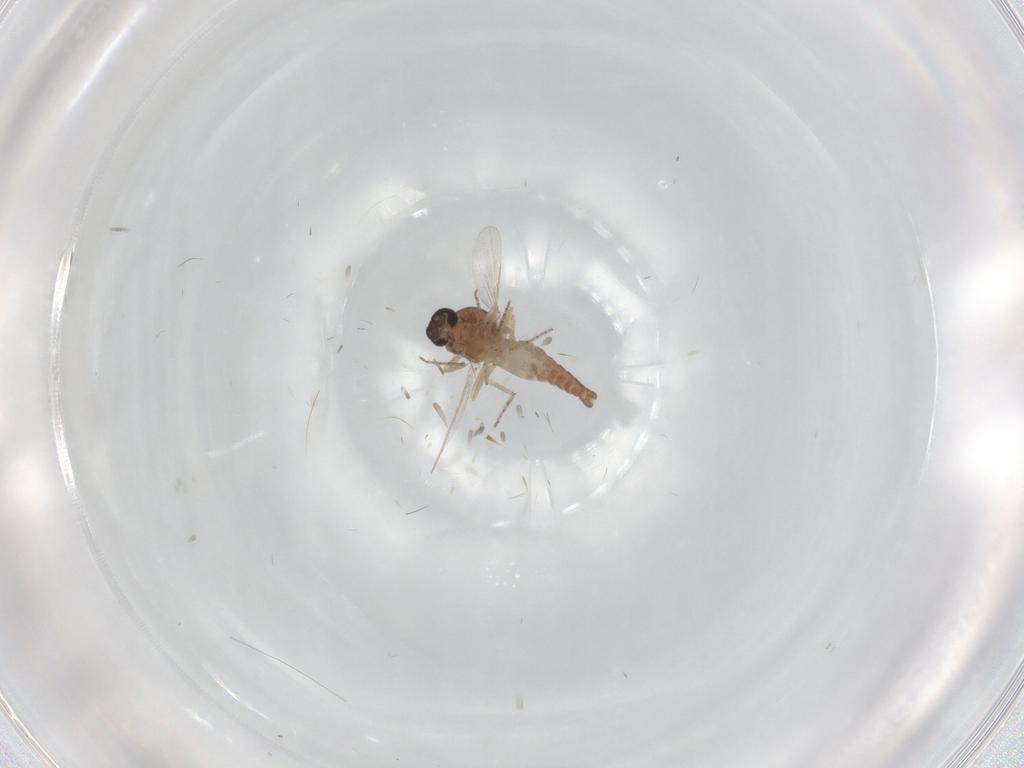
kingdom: Animalia
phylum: Arthropoda
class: Insecta
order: Diptera
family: Ceratopogonidae
